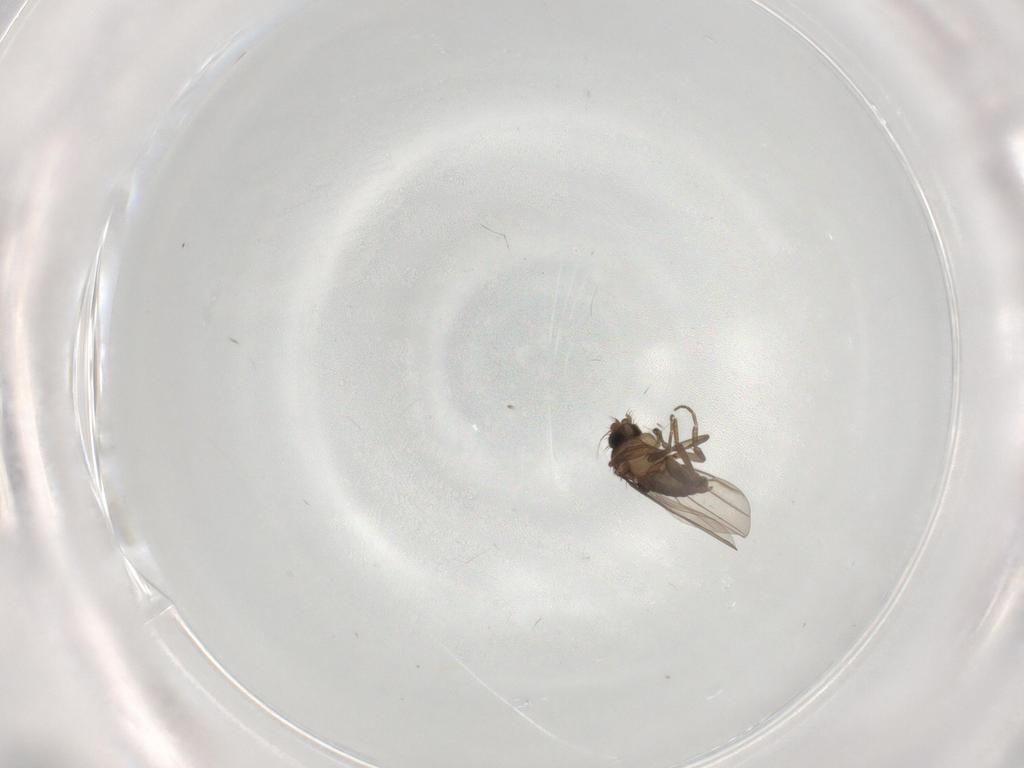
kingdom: Animalia
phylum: Arthropoda
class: Insecta
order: Diptera
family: Phoridae
